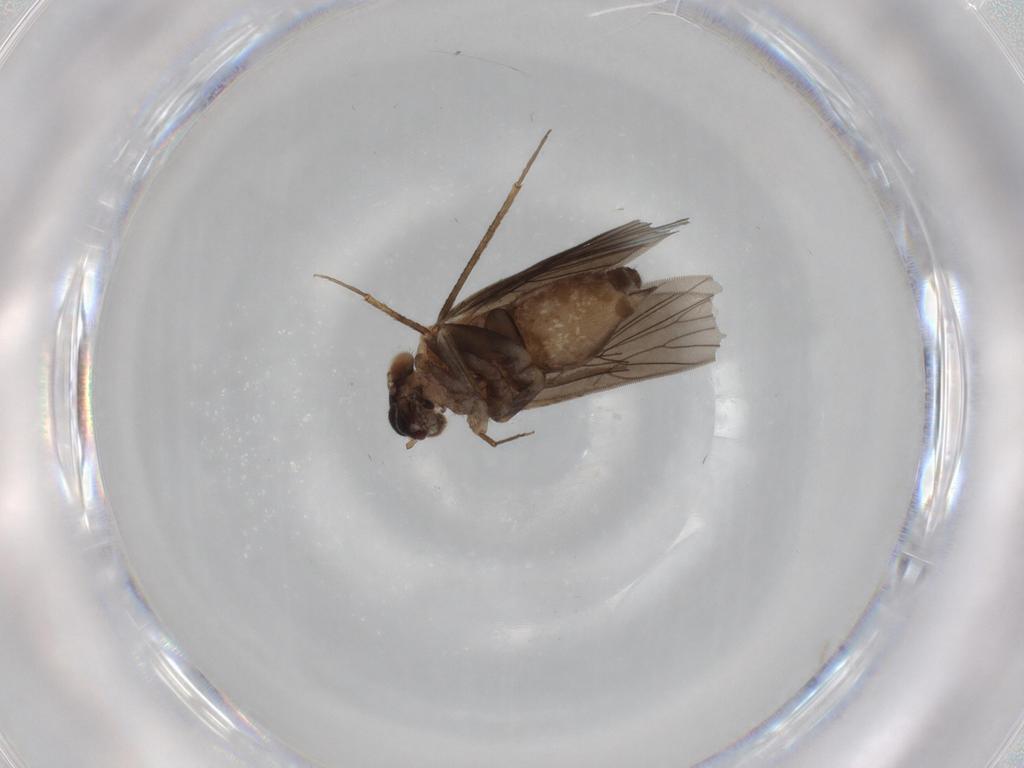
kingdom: Animalia
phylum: Arthropoda
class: Insecta
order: Psocodea
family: Lepidopsocidae
